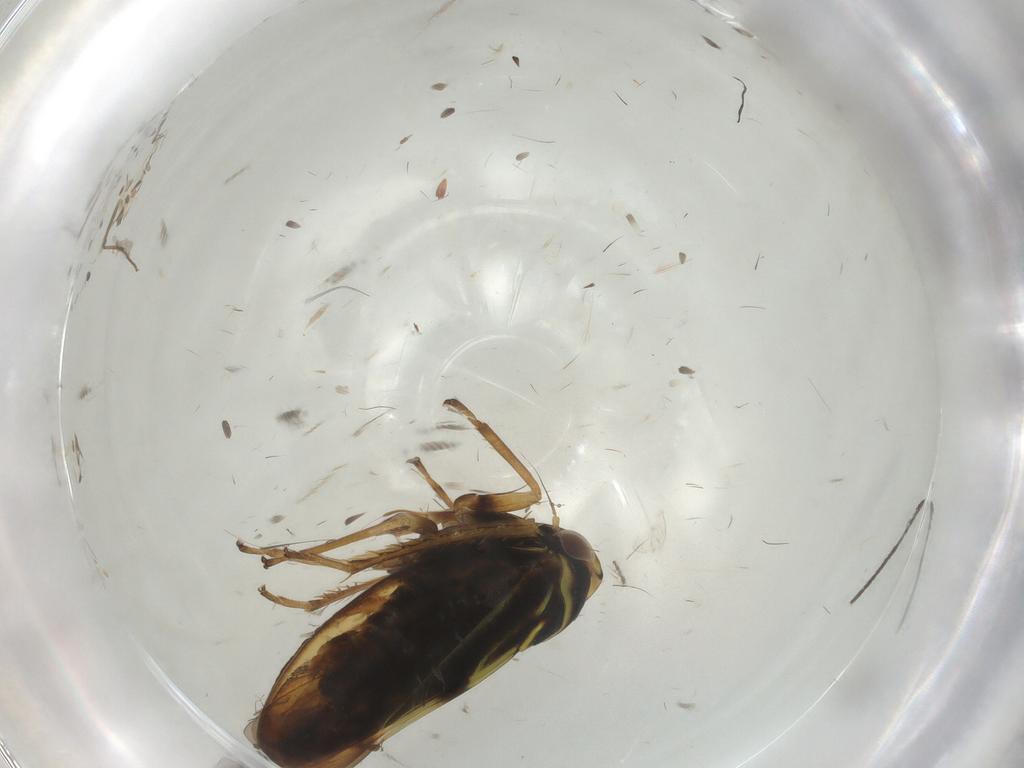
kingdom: Animalia
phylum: Arthropoda
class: Insecta
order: Hemiptera
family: Cicadellidae
